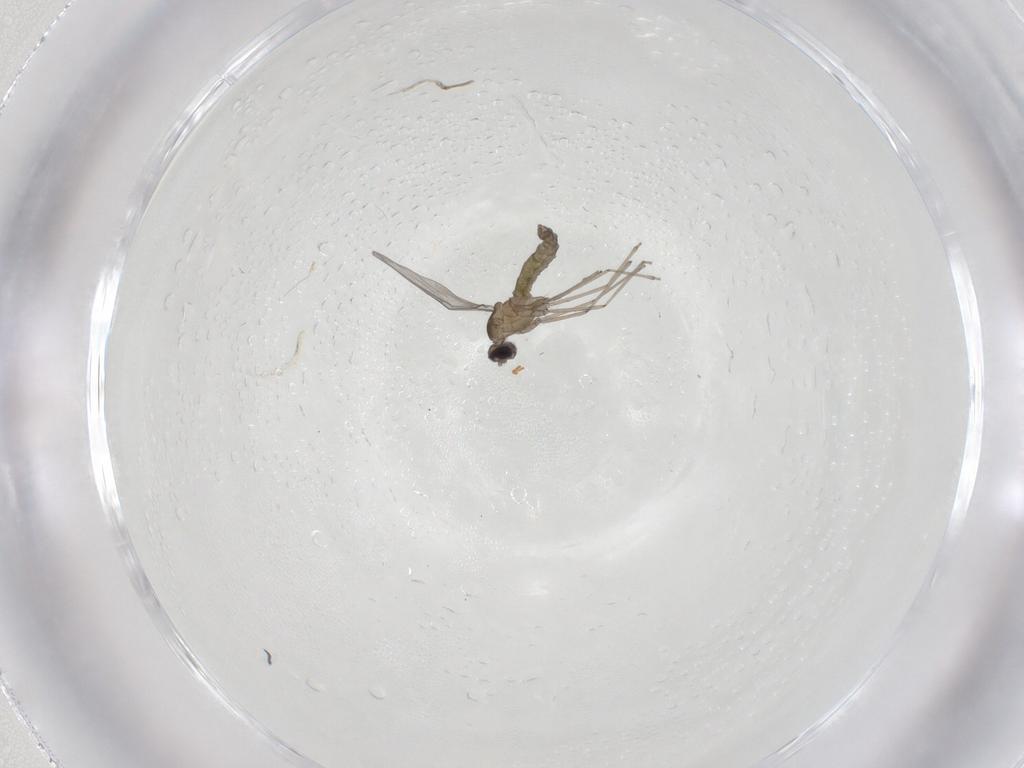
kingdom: Animalia
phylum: Arthropoda
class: Insecta
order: Diptera
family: Cecidomyiidae
